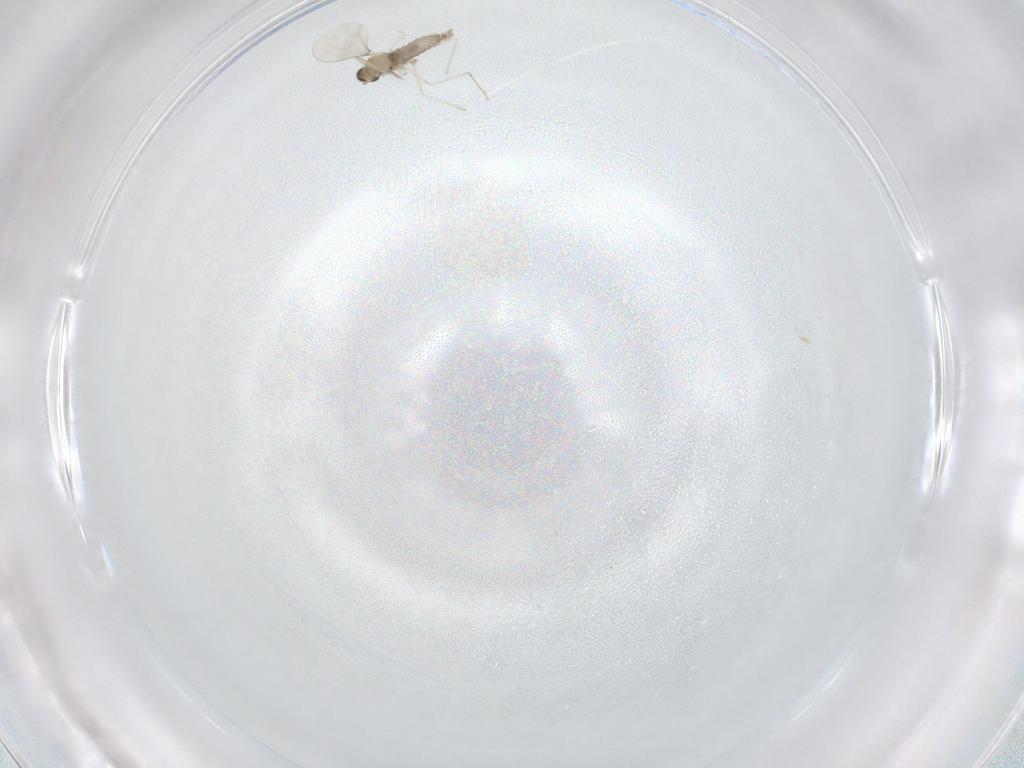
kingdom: Animalia
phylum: Arthropoda
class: Insecta
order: Diptera
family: Cecidomyiidae
